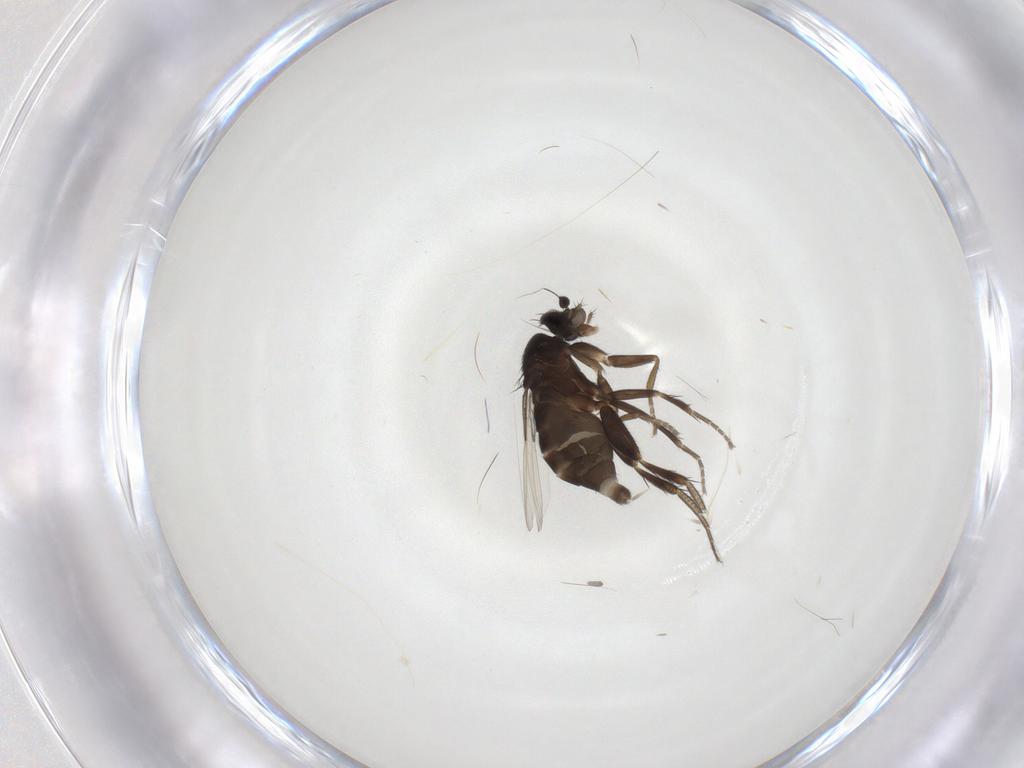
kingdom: Animalia
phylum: Arthropoda
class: Insecta
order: Diptera
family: Phoridae
